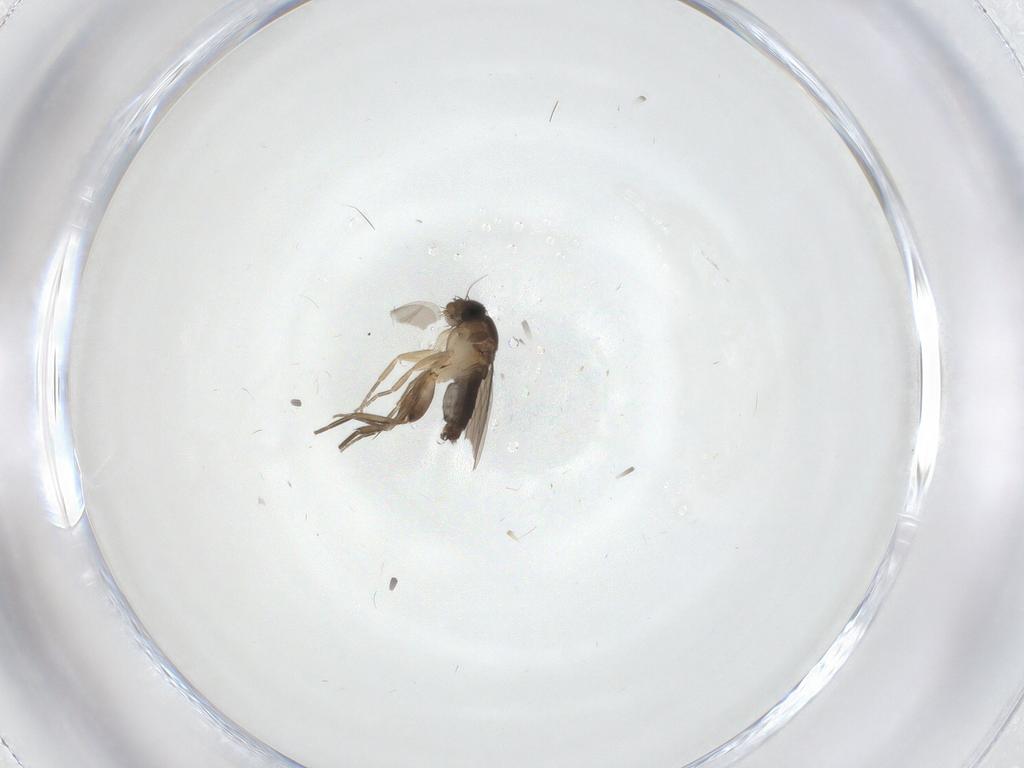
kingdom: Animalia
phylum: Arthropoda
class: Insecta
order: Diptera
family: Phoridae
